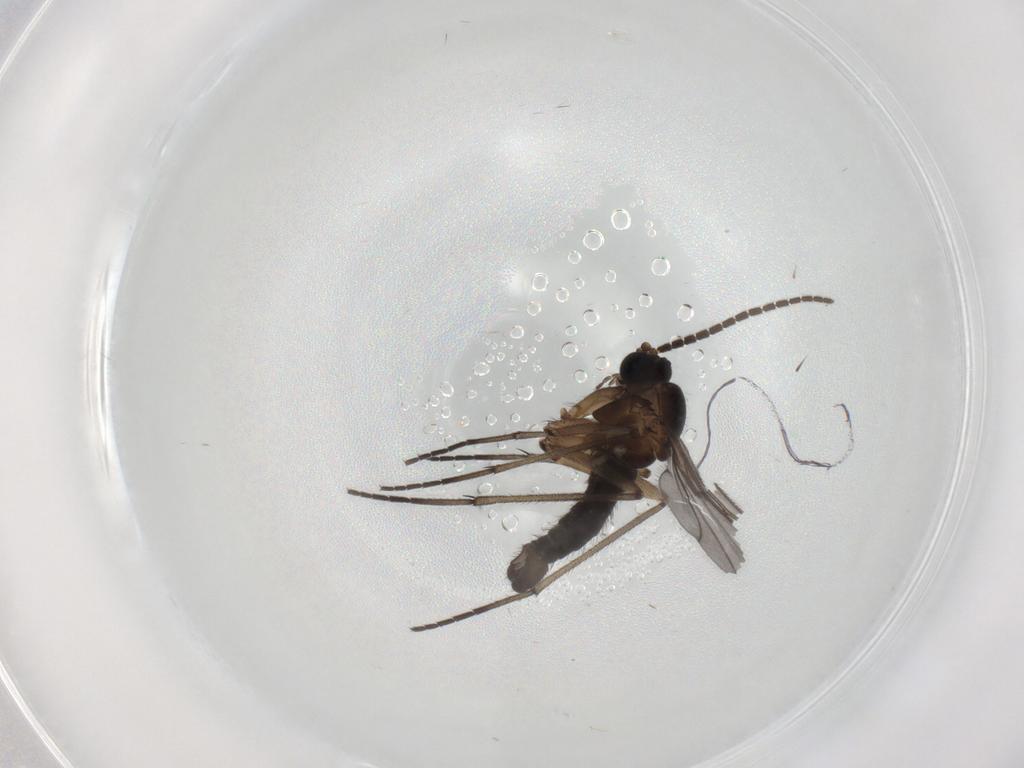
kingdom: Animalia
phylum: Arthropoda
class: Insecta
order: Diptera
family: Sciaridae
